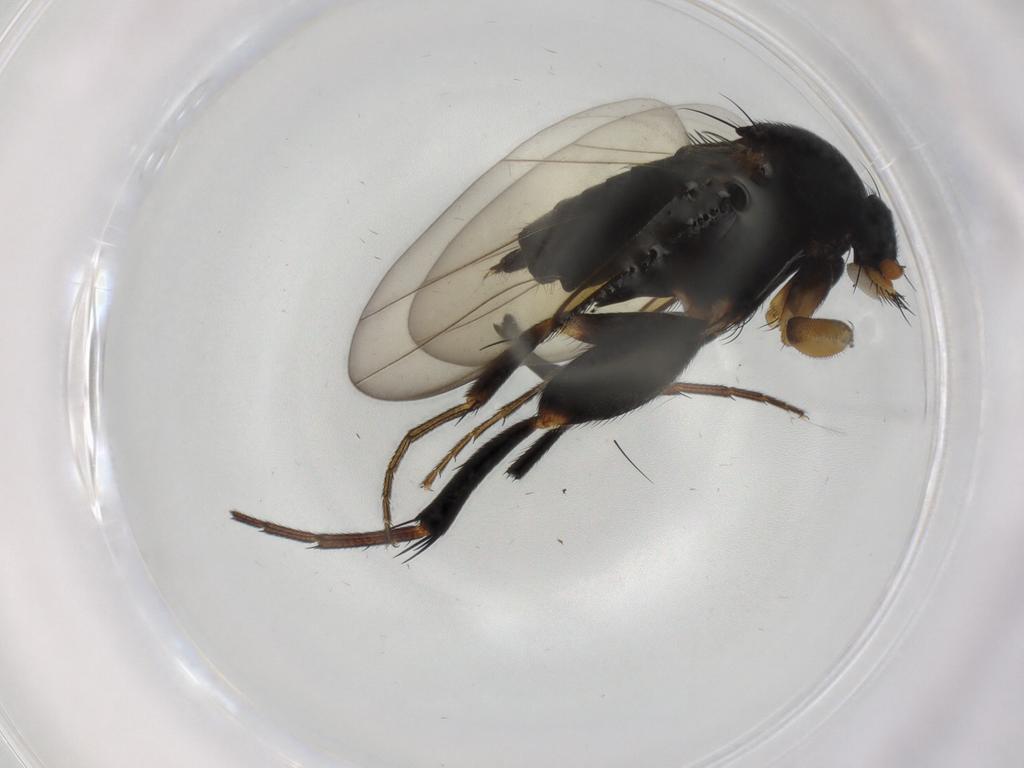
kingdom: Animalia
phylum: Arthropoda
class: Insecta
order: Diptera
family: Phoridae
